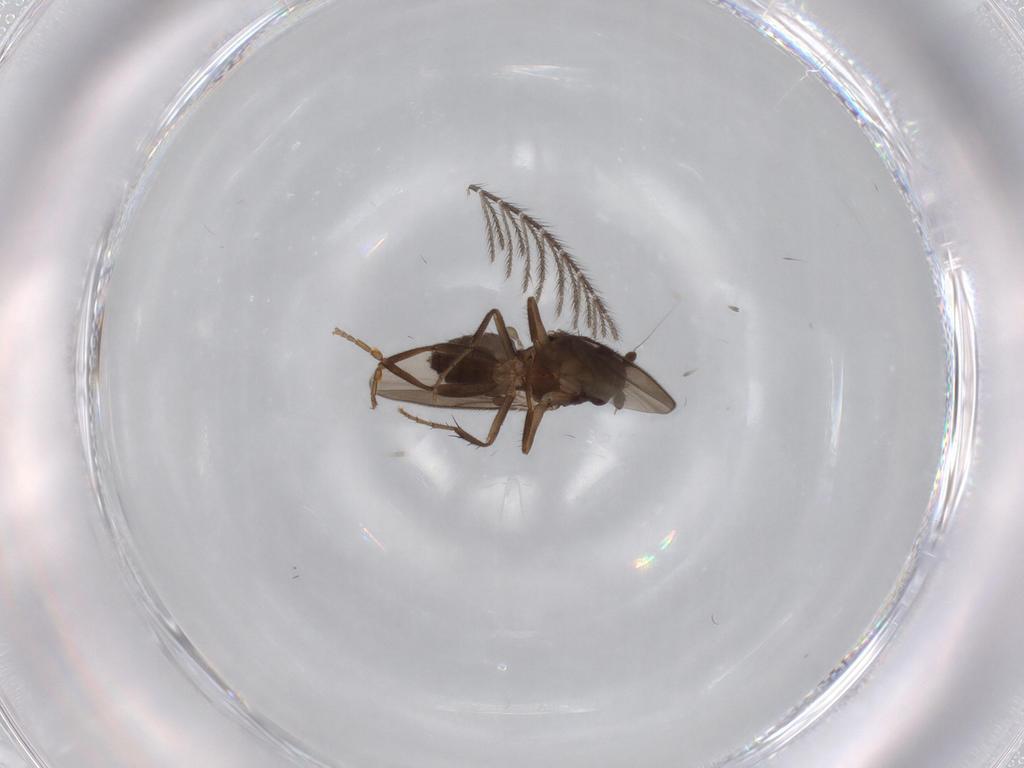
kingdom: Animalia
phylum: Arthropoda
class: Insecta
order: Diptera
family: Sphaeroceridae
